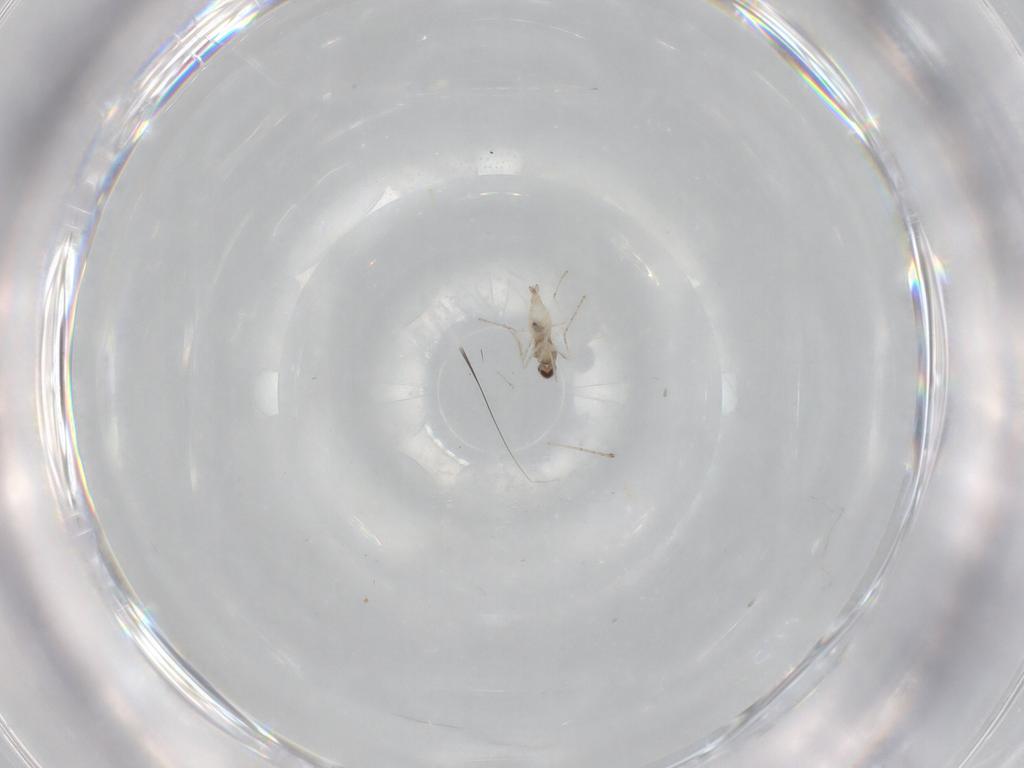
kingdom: Animalia
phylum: Arthropoda
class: Insecta
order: Diptera
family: Cecidomyiidae
